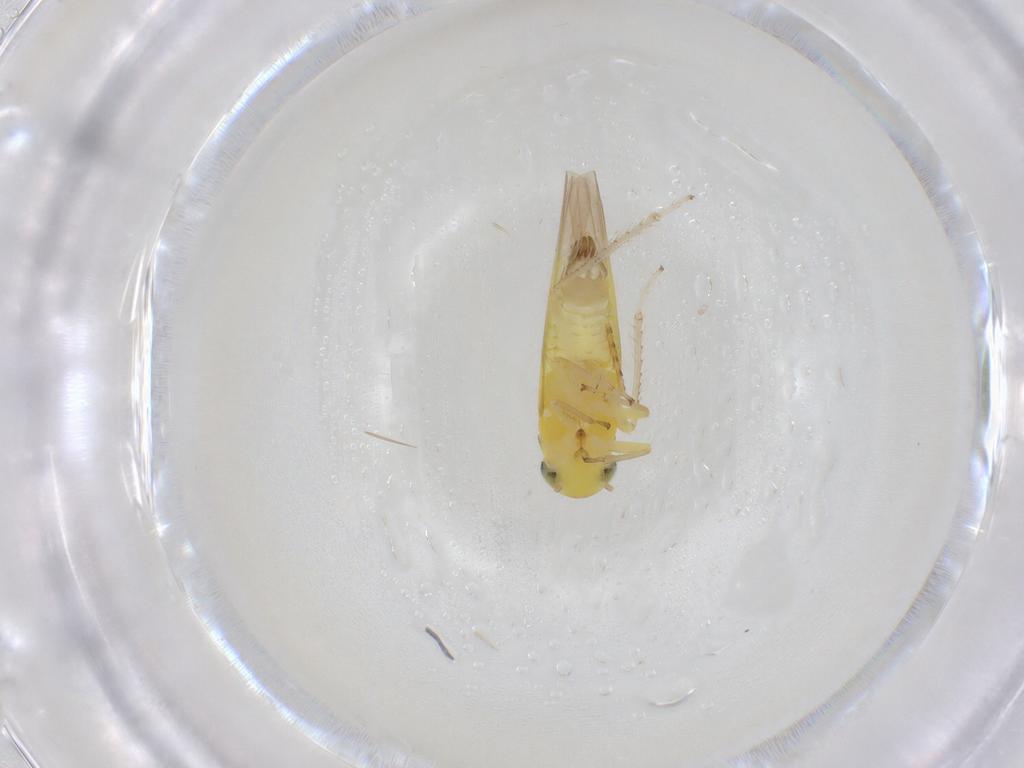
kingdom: Animalia
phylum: Arthropoda
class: Insecta
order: Hemiptera
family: Cicadellidae
